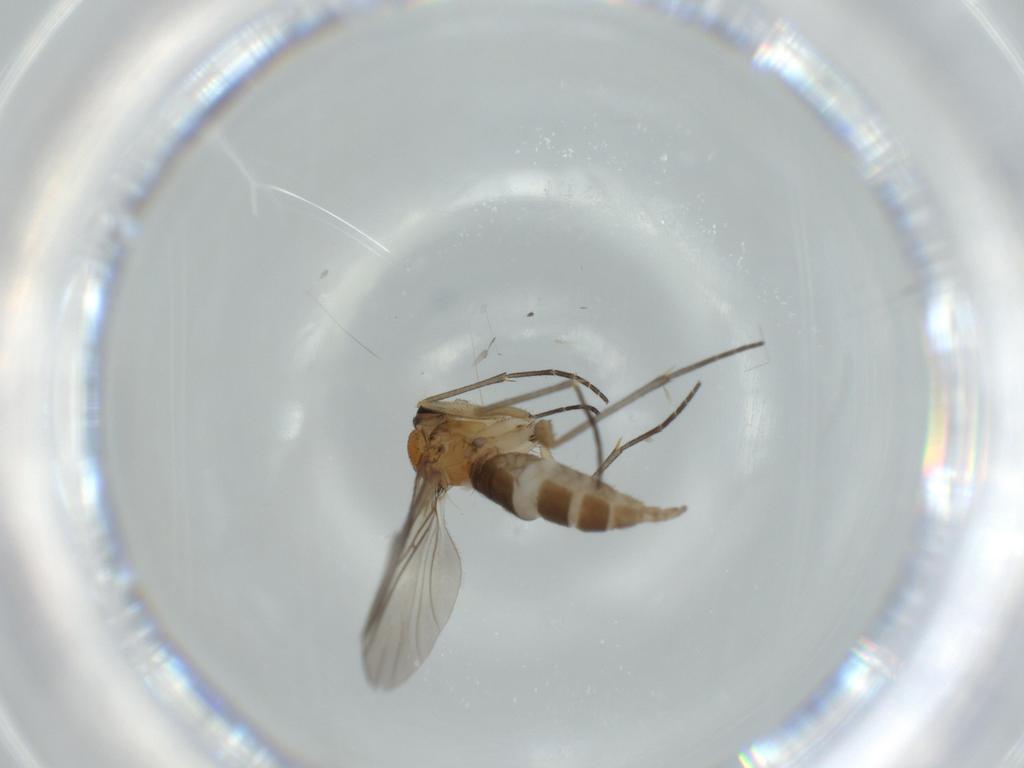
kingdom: Animalia
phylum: Arthropoda
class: Insecta
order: Diptera
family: Sciaridae
